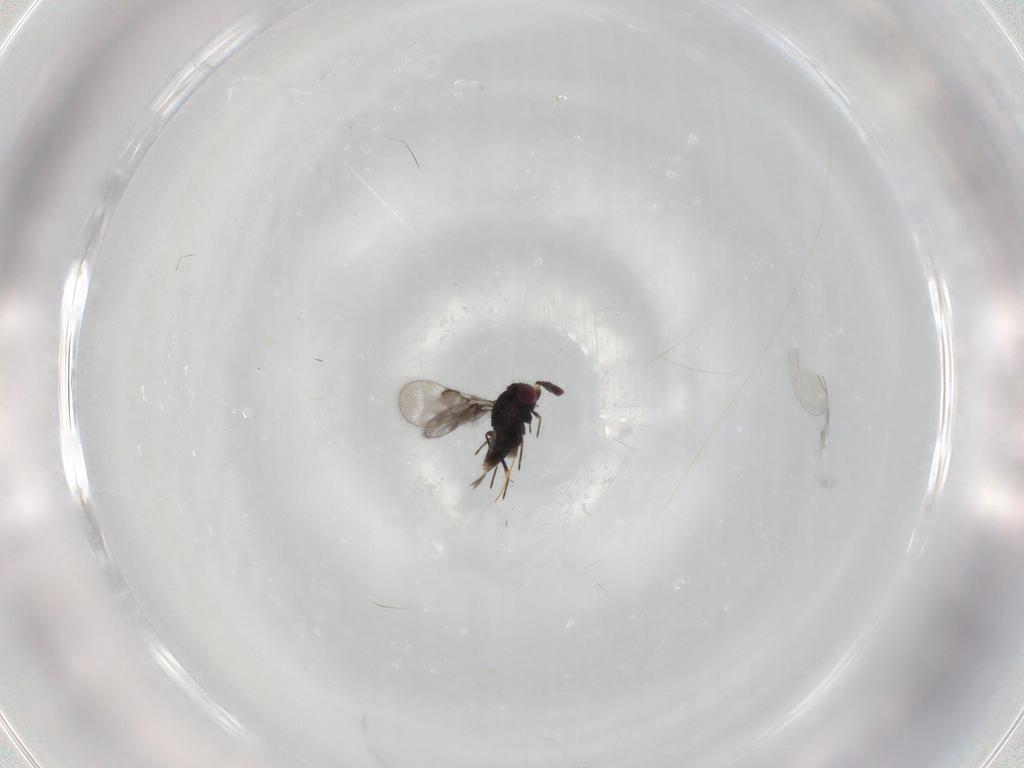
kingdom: Animalia
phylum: Arthropoda
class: Insecta
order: Hymenoptera
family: Eulophidae
